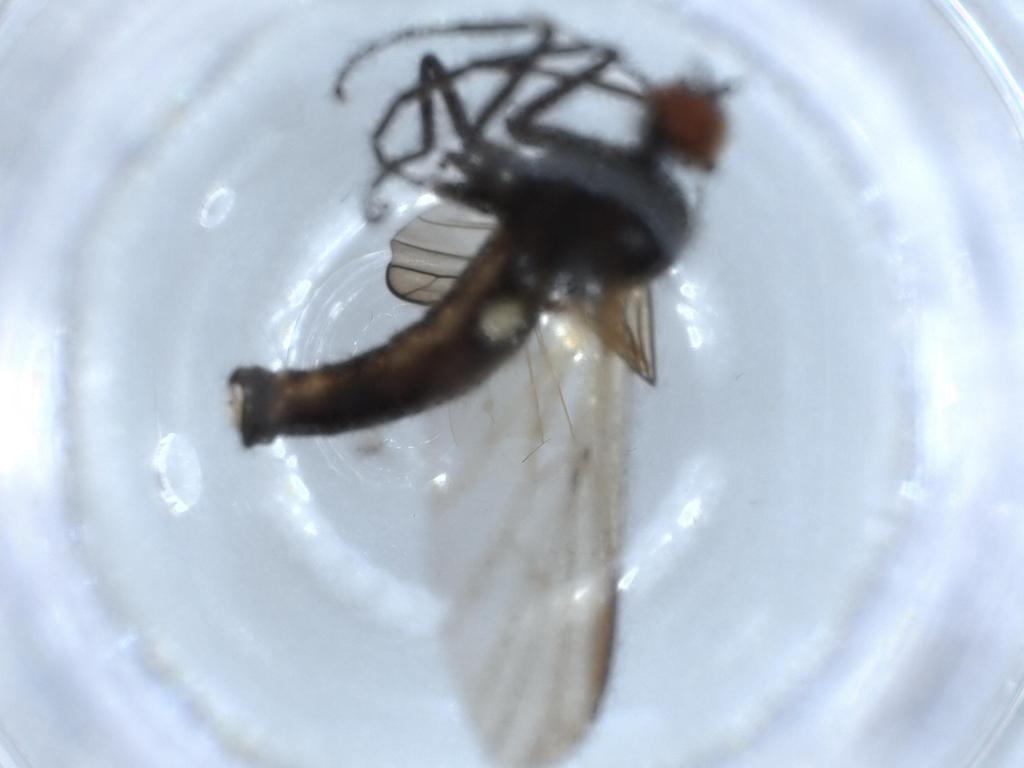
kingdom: Animalia
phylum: Arthropoda
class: Insecta
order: Diptera
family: Empididae
